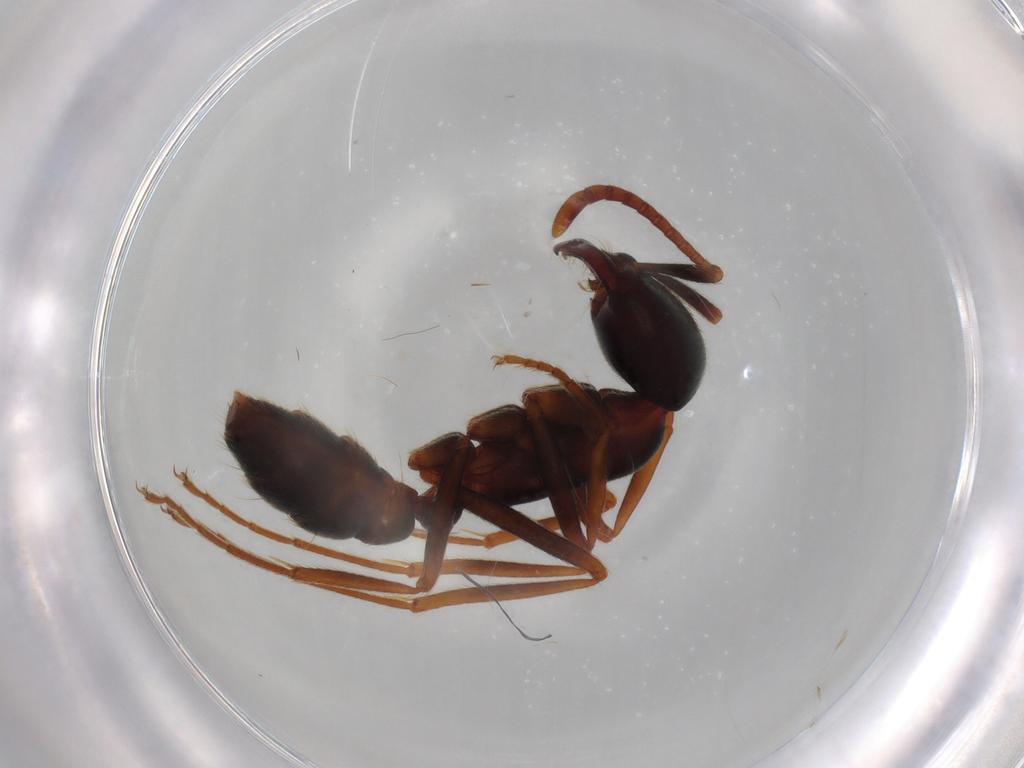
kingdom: Animalia
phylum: Arthropoda
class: Insecta
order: Hymenoptera
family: Formicidae
